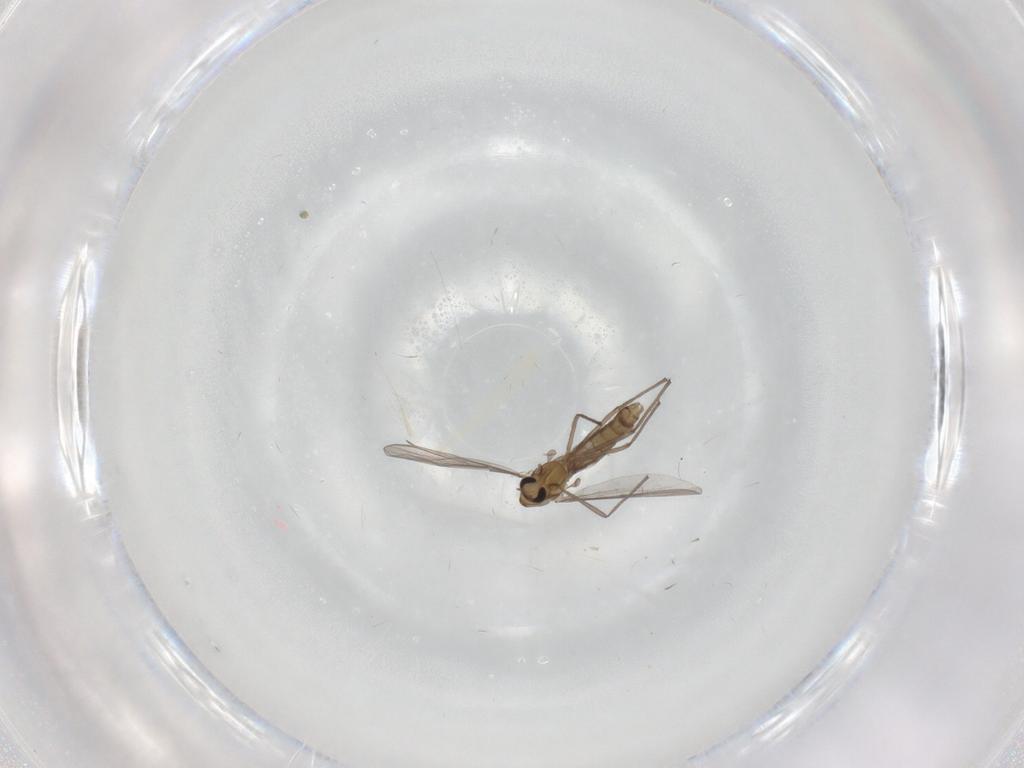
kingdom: Animalia
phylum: Arthropoda
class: Insecta
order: Diptera
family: Chironomidae
